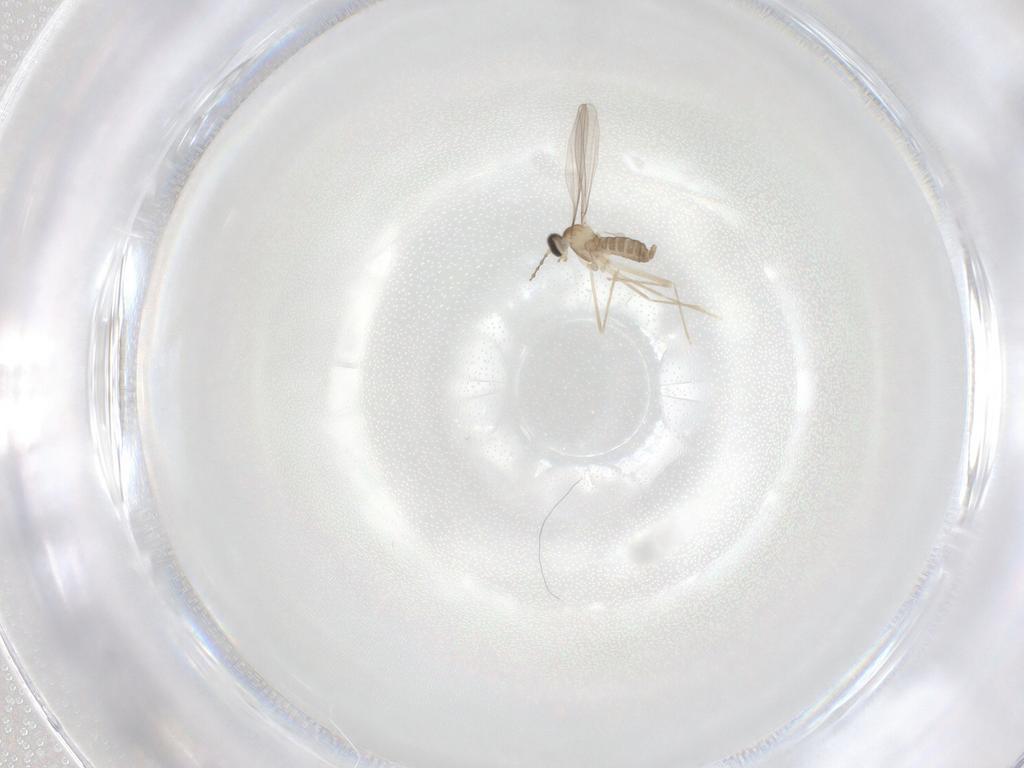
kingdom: Animalia
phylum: Arthropoda
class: Insecta
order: Diptera
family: Cecidomyiidae
